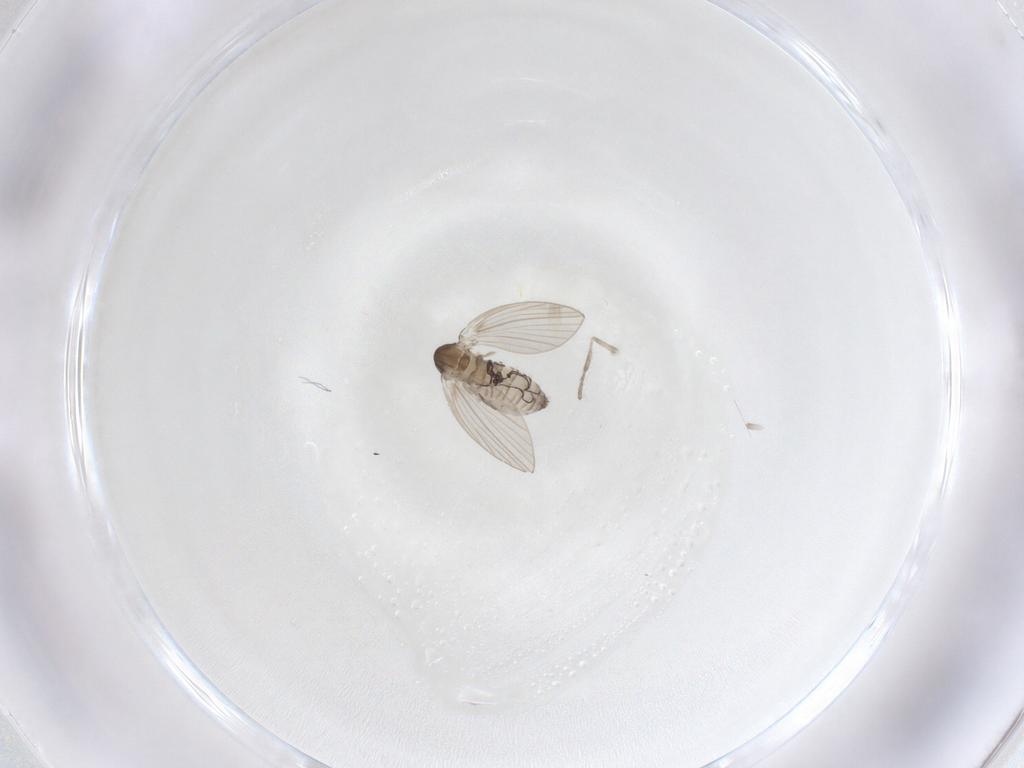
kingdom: Animalia
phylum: Arthropoda
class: Insecta
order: Diptera
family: Psychodidae
